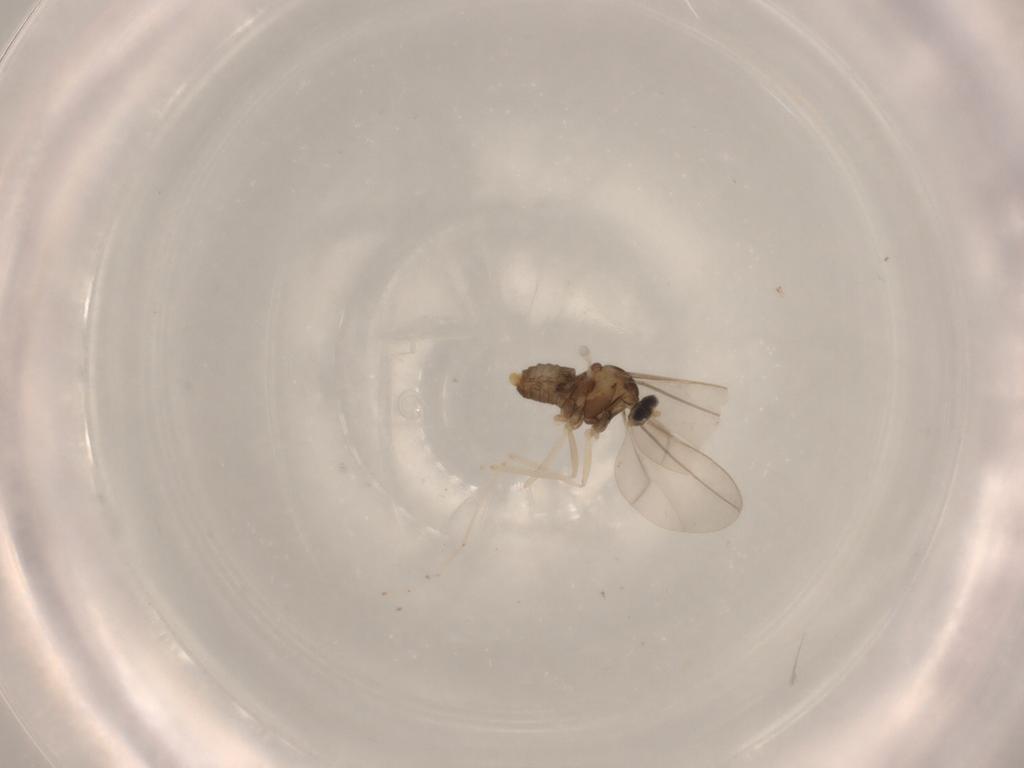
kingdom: Animalia
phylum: Arthropoda
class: Insecta
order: Diptera
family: Cecidomyiidae
